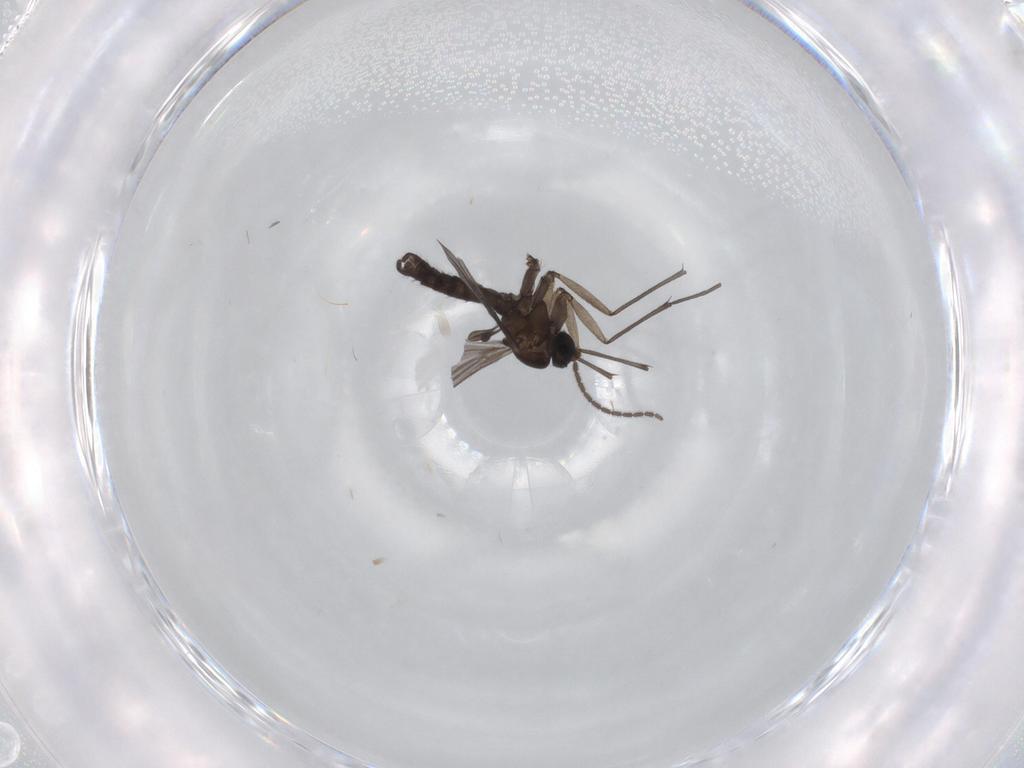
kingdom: Animalia
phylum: Arthropoda
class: Insecta
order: Diptera
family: Sciaridae
